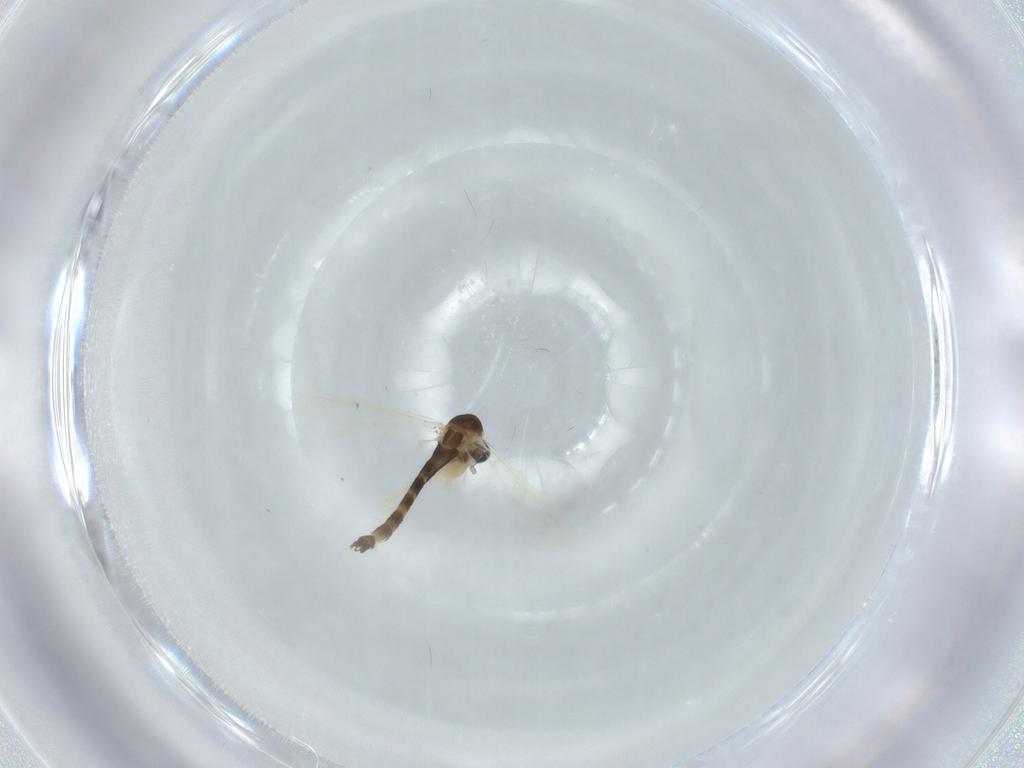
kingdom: Animalia
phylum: Arthropoda
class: Insecta
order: Diptera
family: Chironomidae
